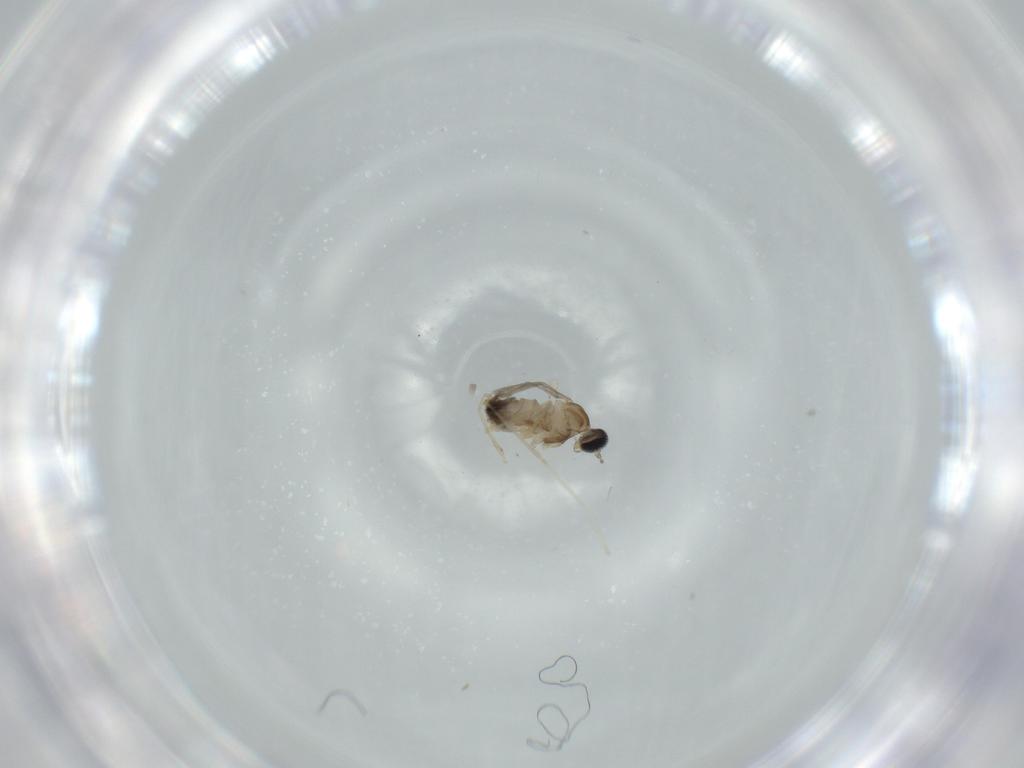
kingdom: Animalia
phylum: Arthropoda
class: Insecta
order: Diptera
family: Cecidomyiidae
